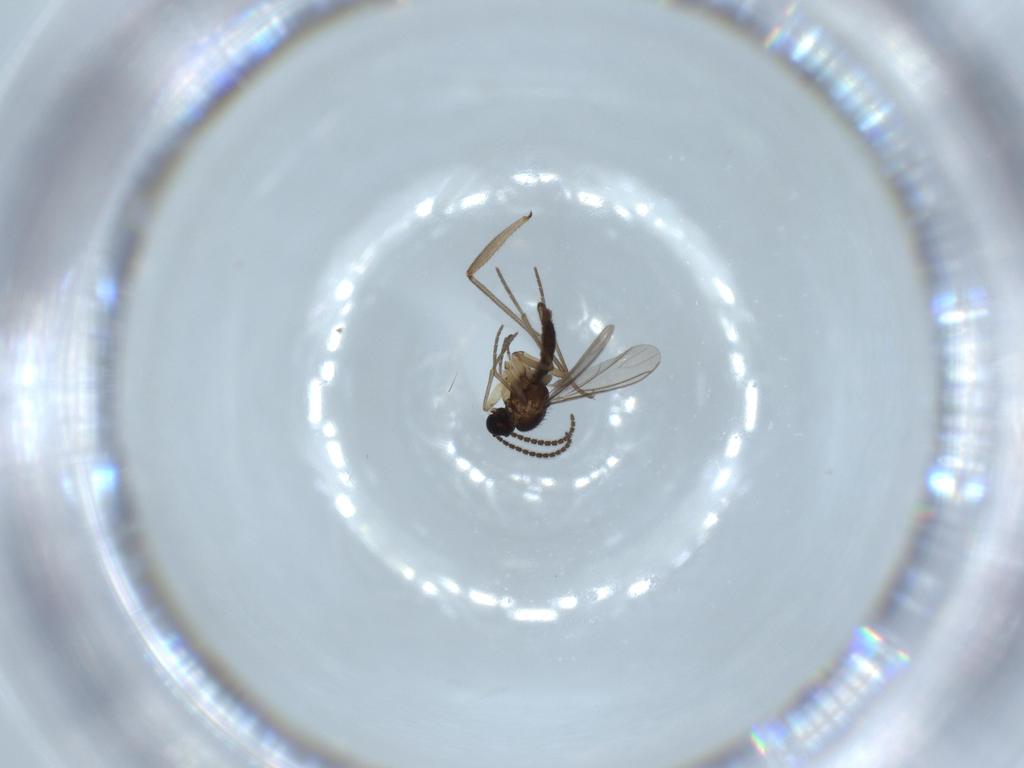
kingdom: Animalia
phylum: Arthropoda
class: Insecta
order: Diptera
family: Sciaridae
